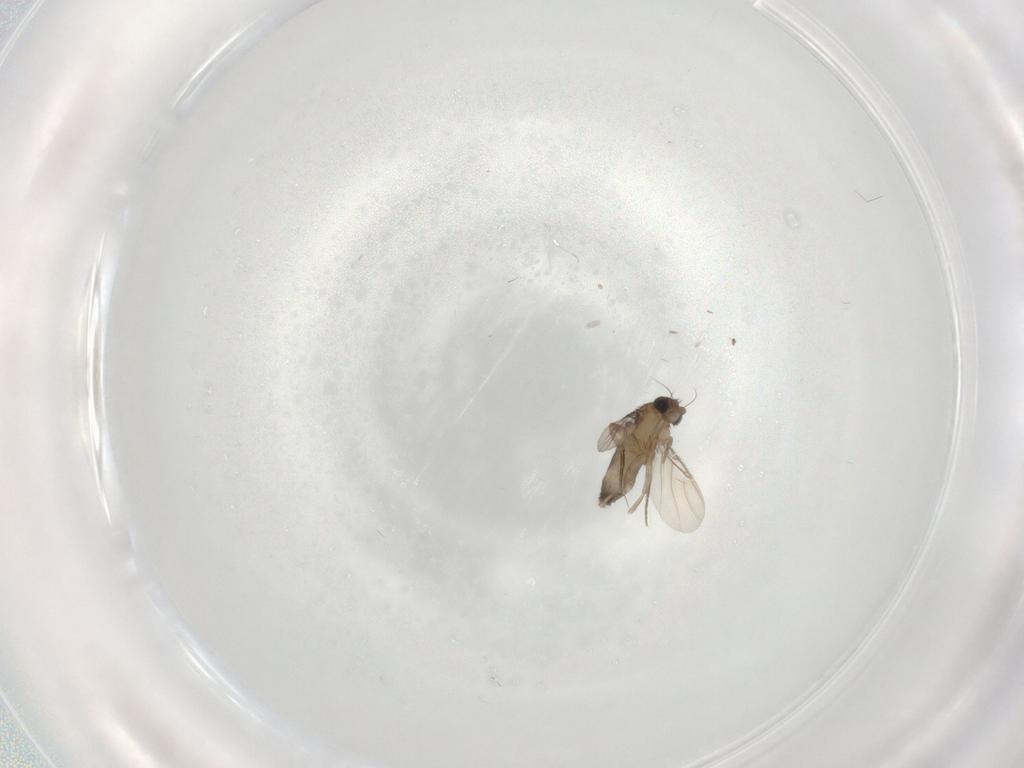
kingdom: Animalia
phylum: Arthropoda
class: Insecta
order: Diptera
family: Phoridae
